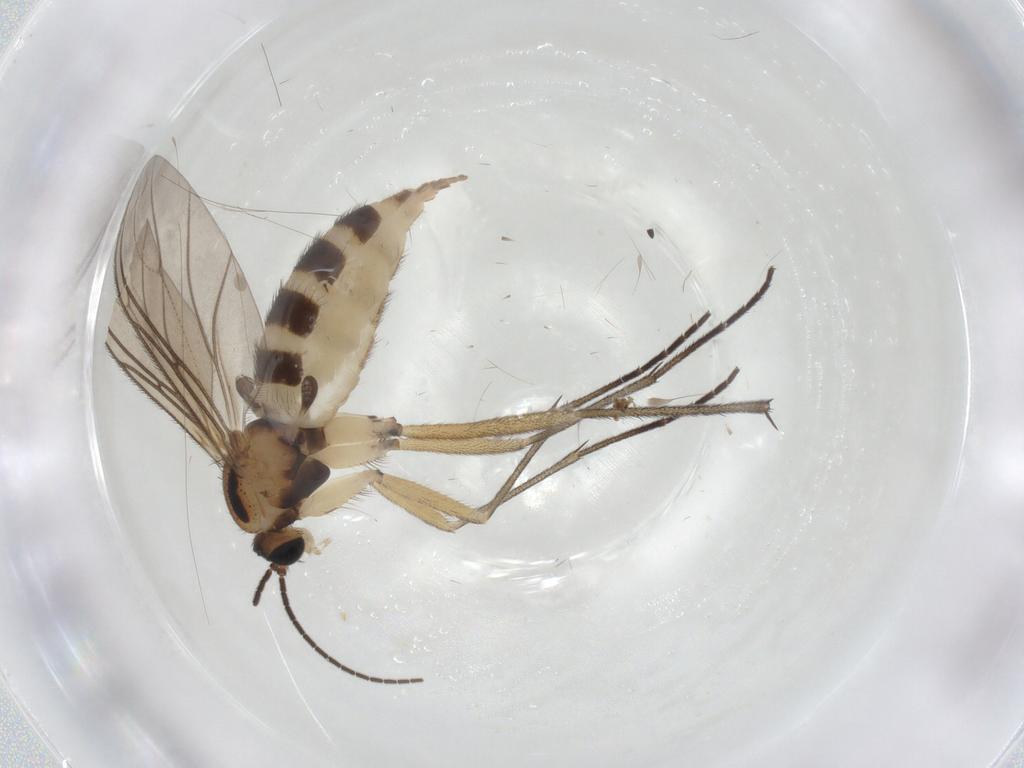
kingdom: Animalia
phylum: Arthropoda
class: Insecta
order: Diptera
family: Sciaridae
